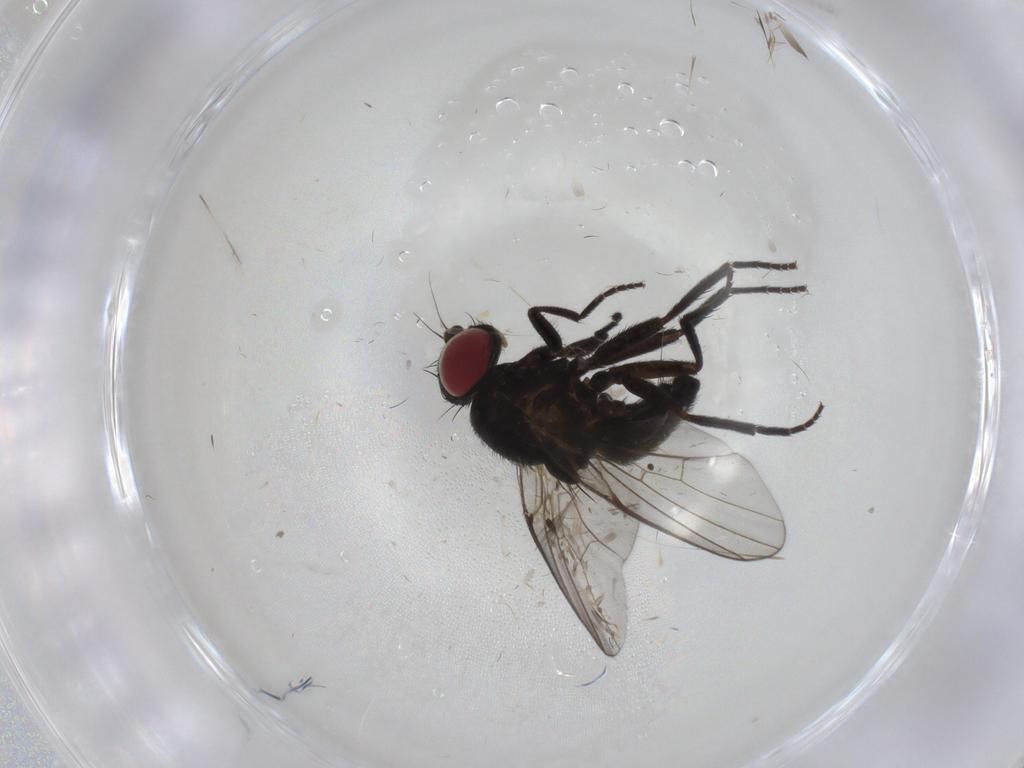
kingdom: Animalia
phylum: Arthropoda
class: Insecta
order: Diptera
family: Agromyzidae
